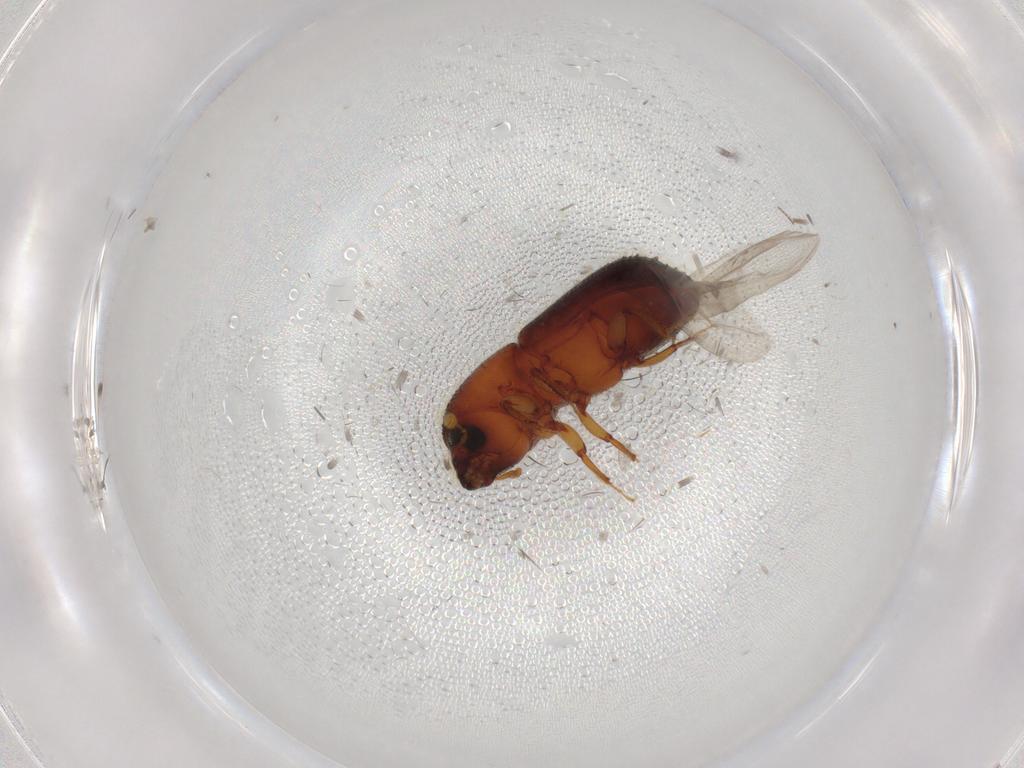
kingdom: Animalia
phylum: Arthropoda
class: Insecta
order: Coleoptera
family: Curculionidae
